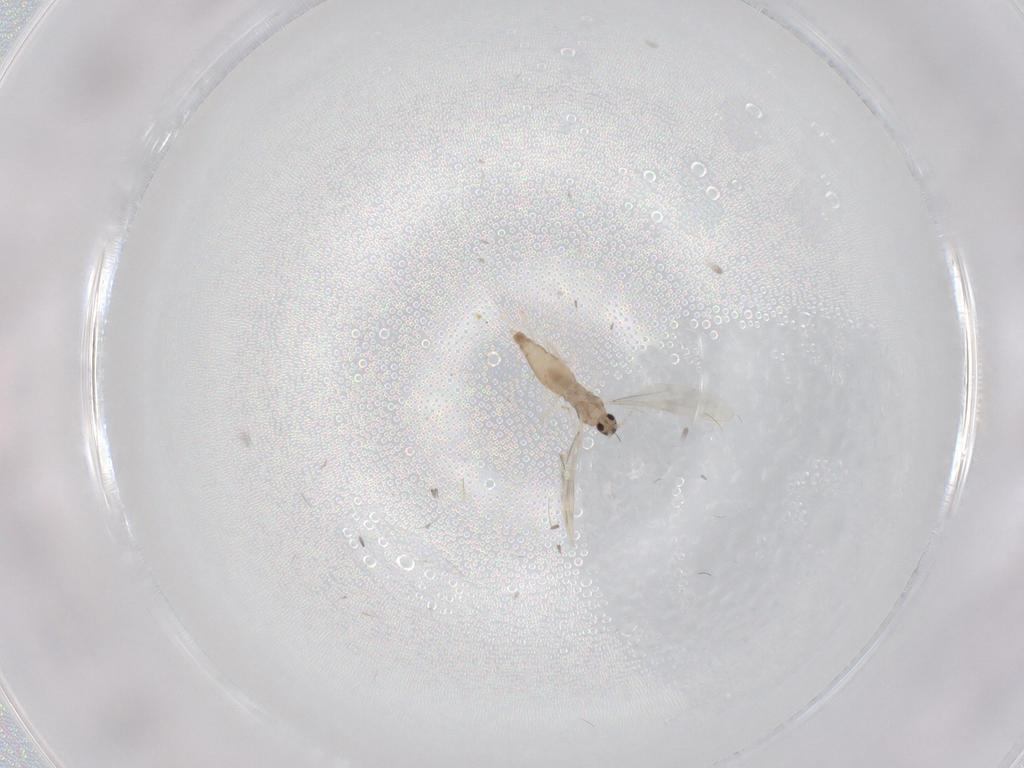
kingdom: Animalia
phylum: Arthropoda
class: Insecta
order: Diptera
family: Cecidomyiidae
